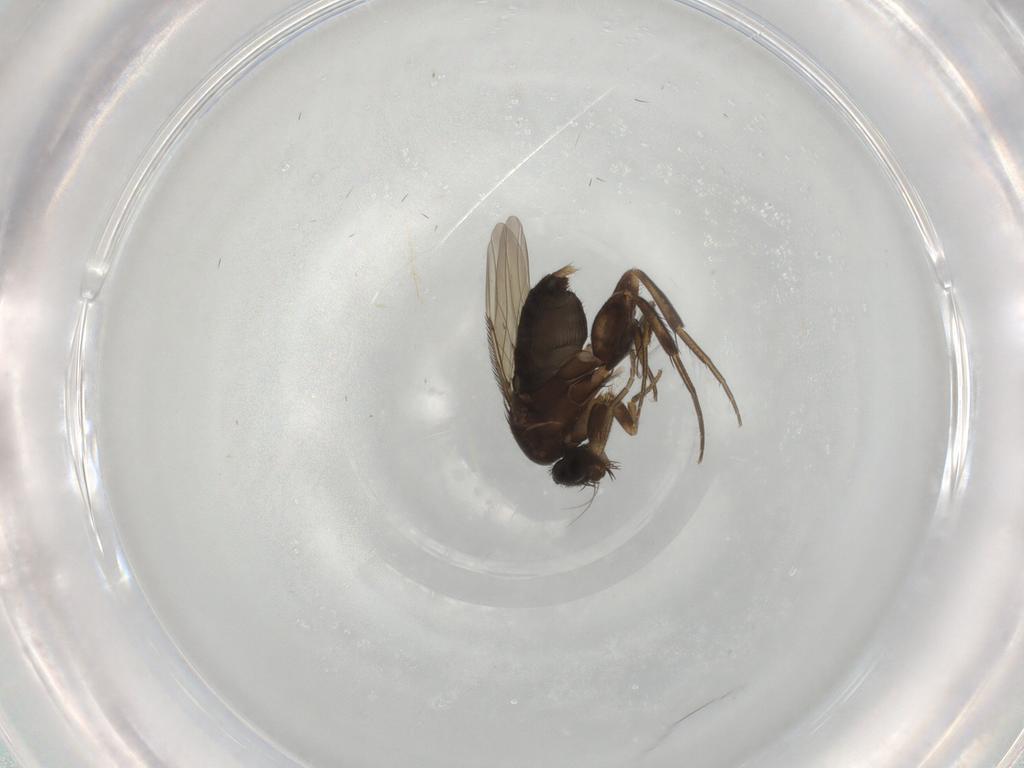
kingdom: Animalia
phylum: Arthropoda
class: Insecta
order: Diptera
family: Phoridae
